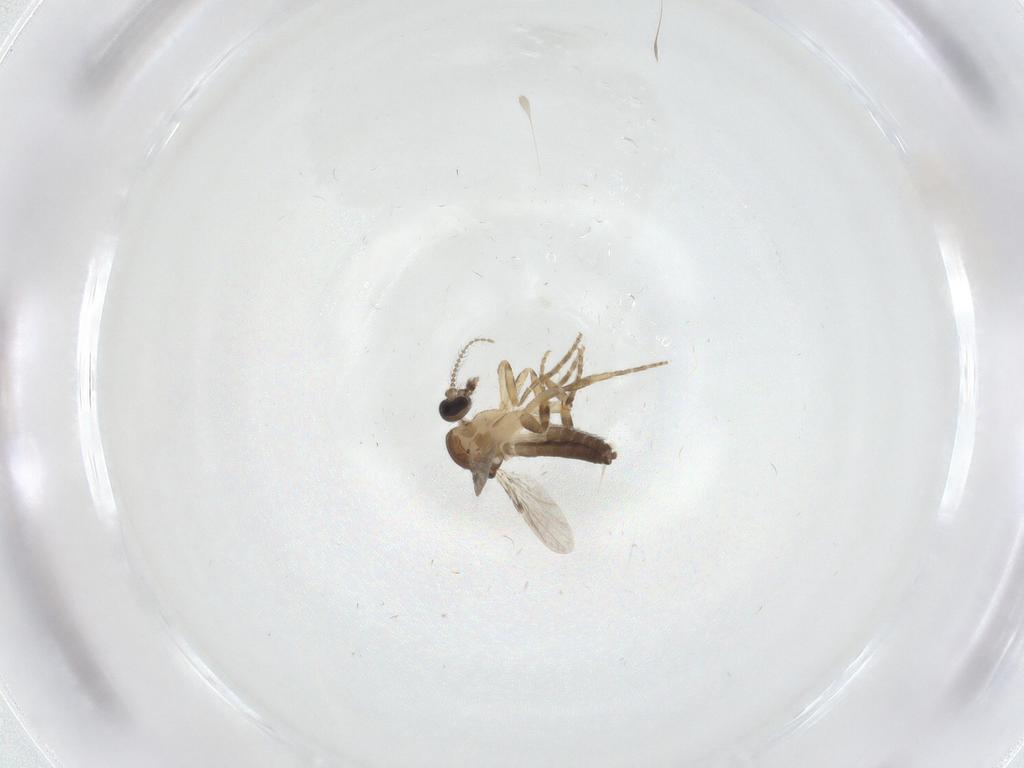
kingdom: Animalia
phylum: Arthropoda
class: Insecta
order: Diptera
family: Ceratopogonidae
